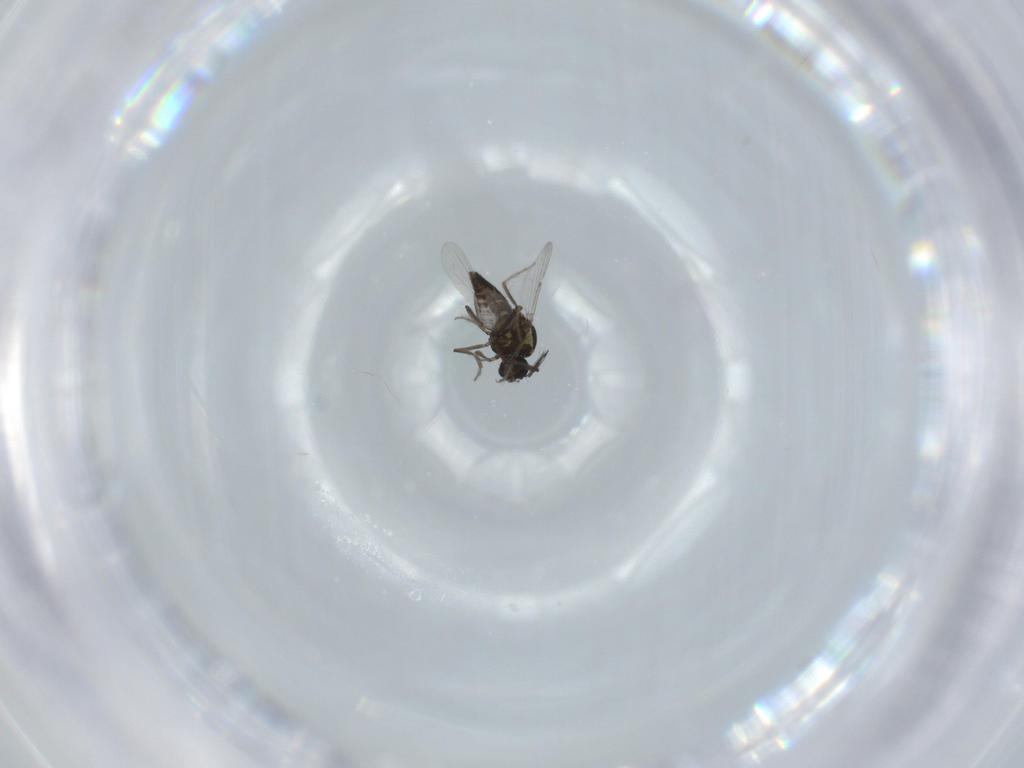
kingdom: Animalia
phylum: Arthropoda
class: Insecta
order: Diptera
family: Ceratopogonidae
